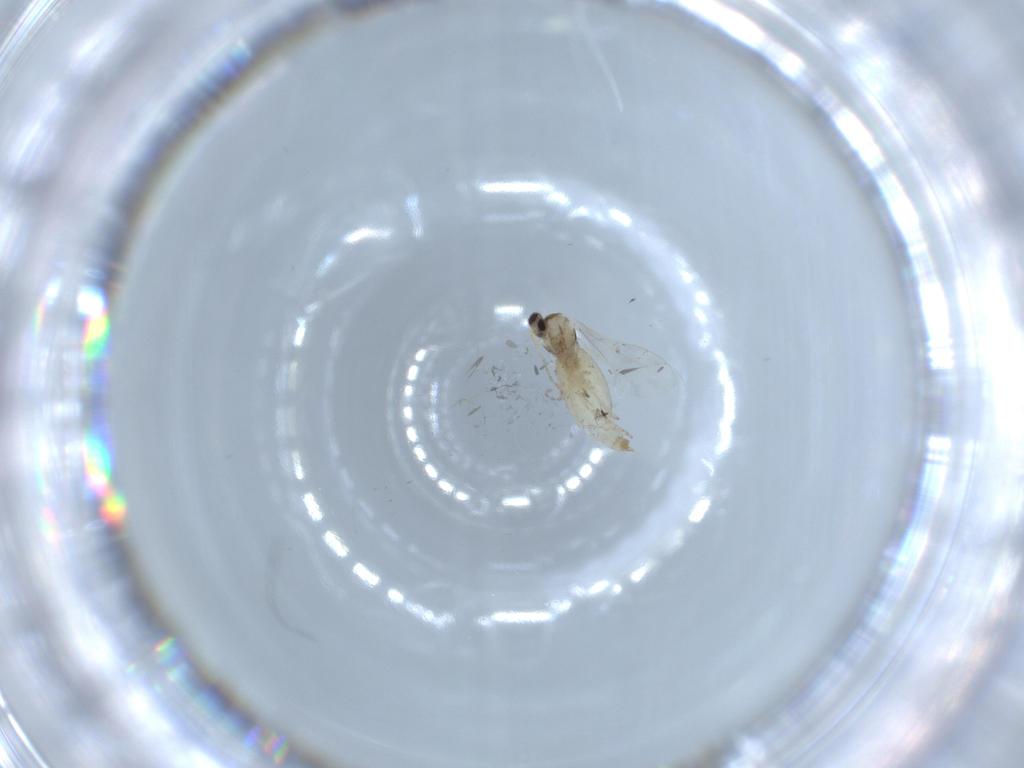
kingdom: Animalia
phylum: Arthropoda
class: Insecta
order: Diptera
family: Cecidomyiidae
